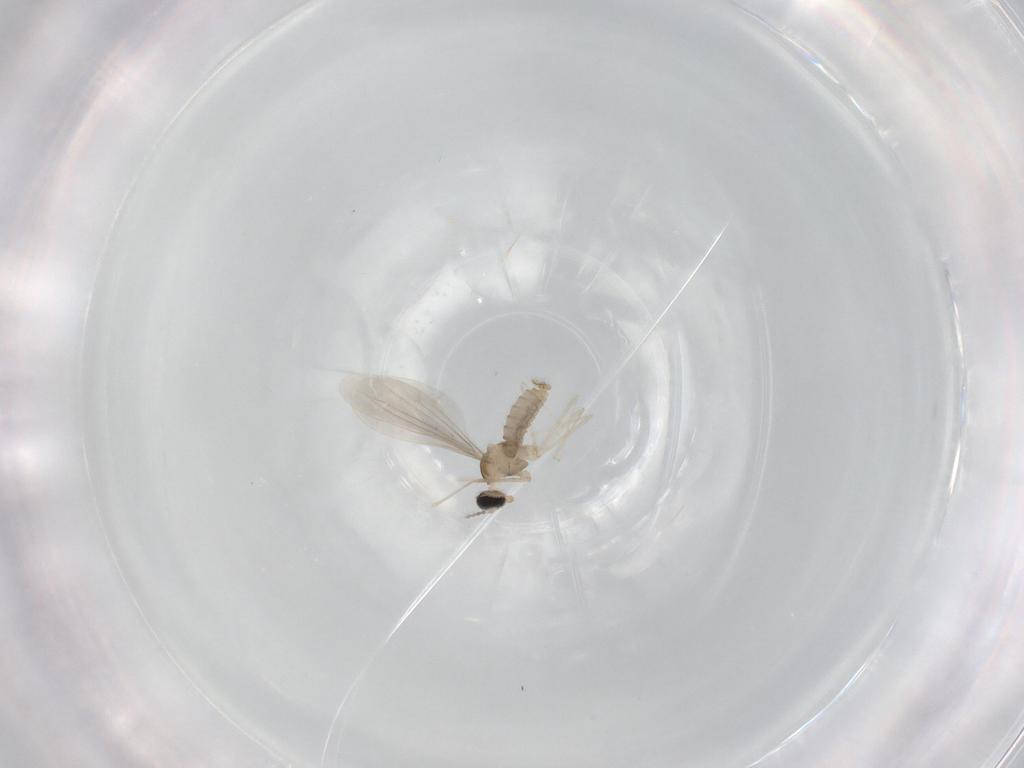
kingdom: Animalia
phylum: Arthropoda
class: Insecta
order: Diptera
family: Cecidomyiidae
